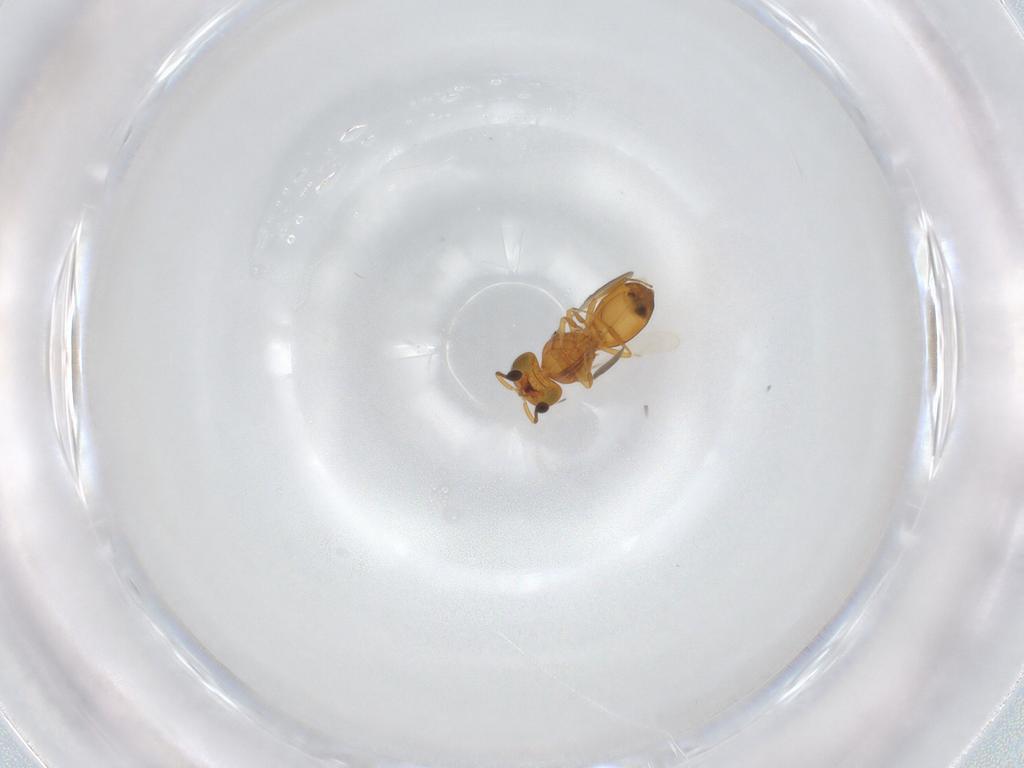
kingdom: Animalia
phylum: Arthropoda
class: Insecta
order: Hymenoptera
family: Scelionidae
